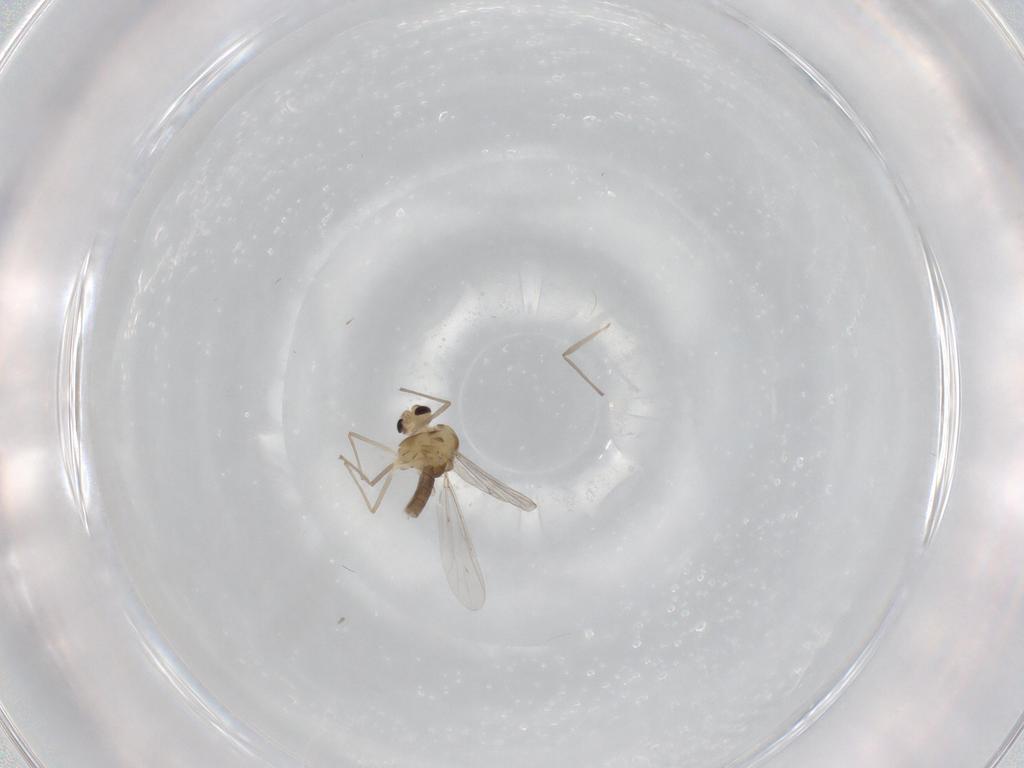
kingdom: Animalia
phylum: Arthropoda
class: Insecta
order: Diptera
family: Chironomidae
